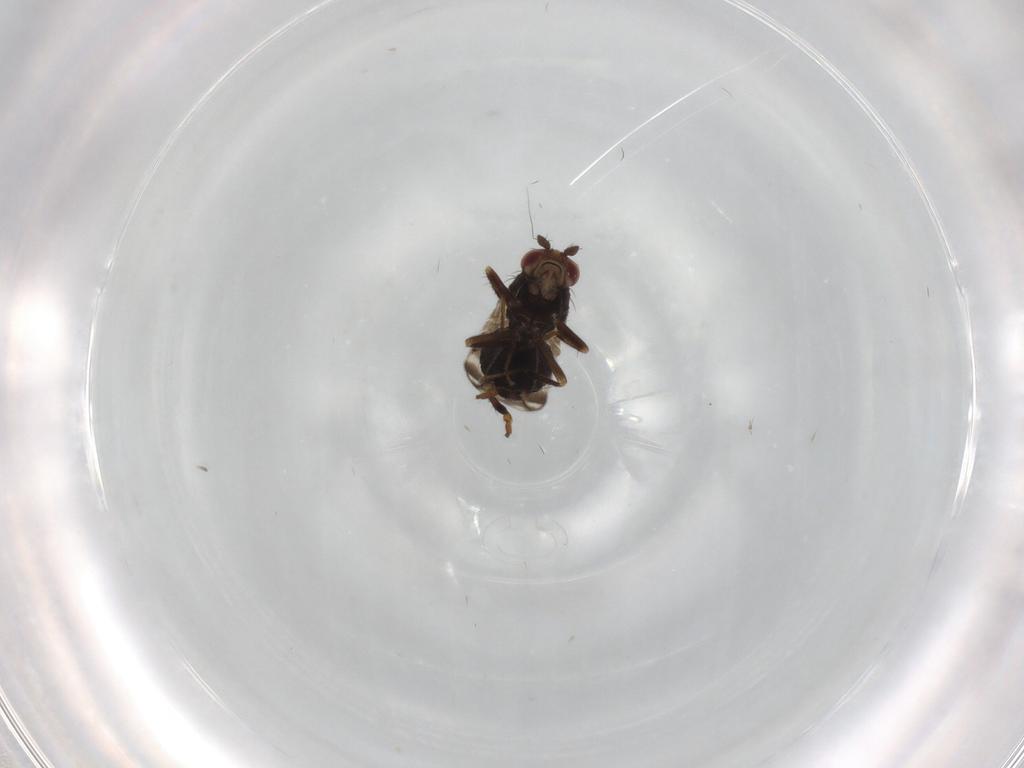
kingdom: Animalia
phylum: Arthropoda
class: Insecta
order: Diptera
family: Sphaeroceridae
